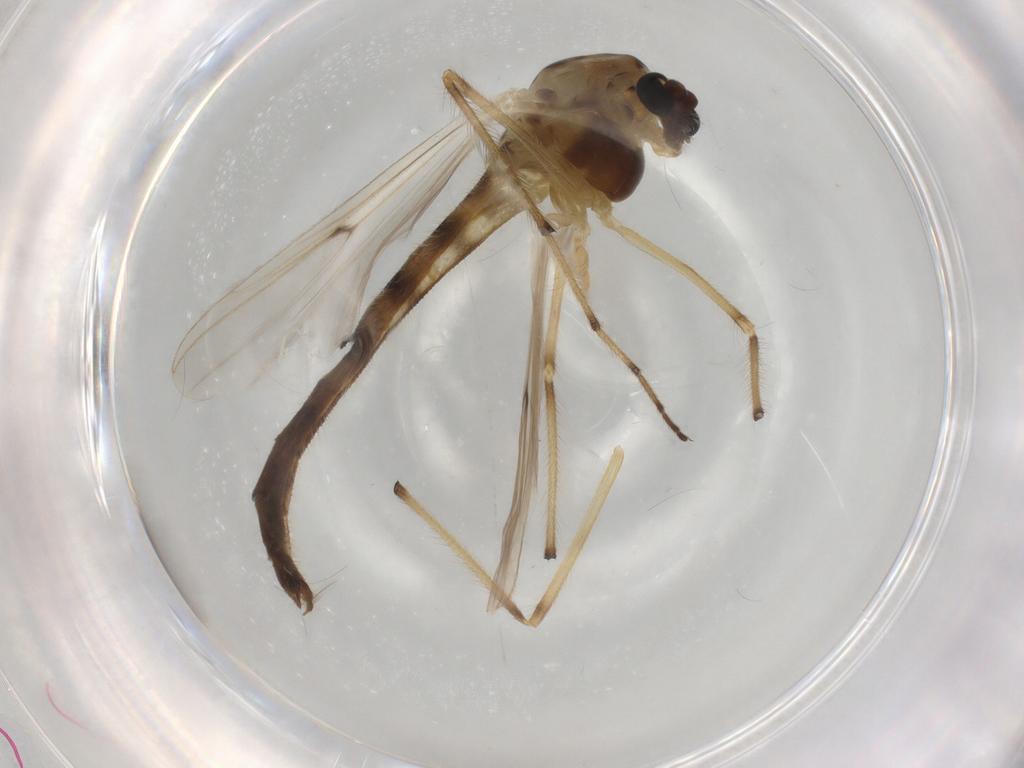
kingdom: Animalia
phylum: Arthropoda
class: Insecta
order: Diptera
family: Chironomidae
